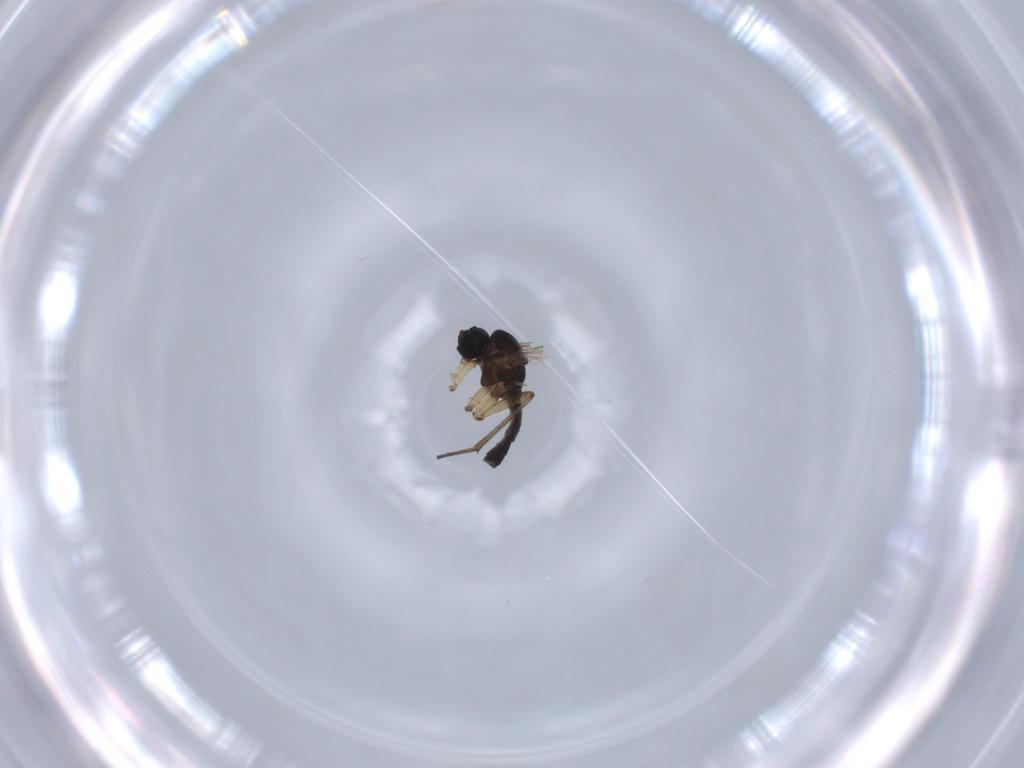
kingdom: Animalia
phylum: Arthropoda
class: Insecta
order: Diptera
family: Sciaridae
